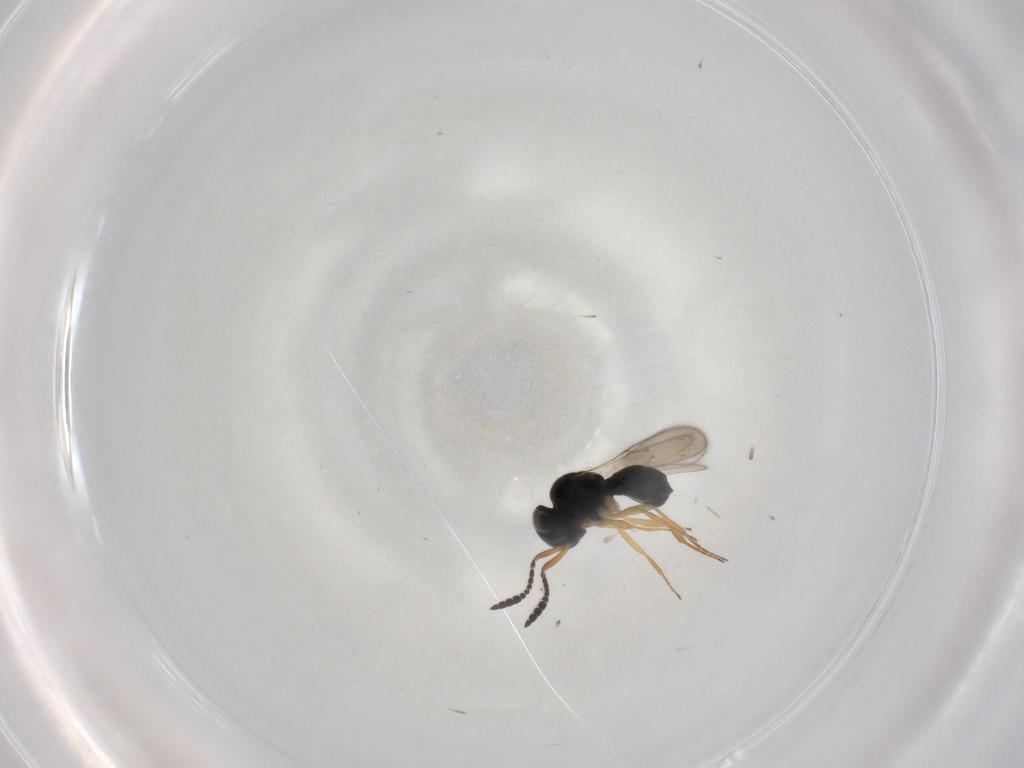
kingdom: Animalia
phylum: Arthropoda
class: Insecta
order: Hymenoptera
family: Scelionidae
